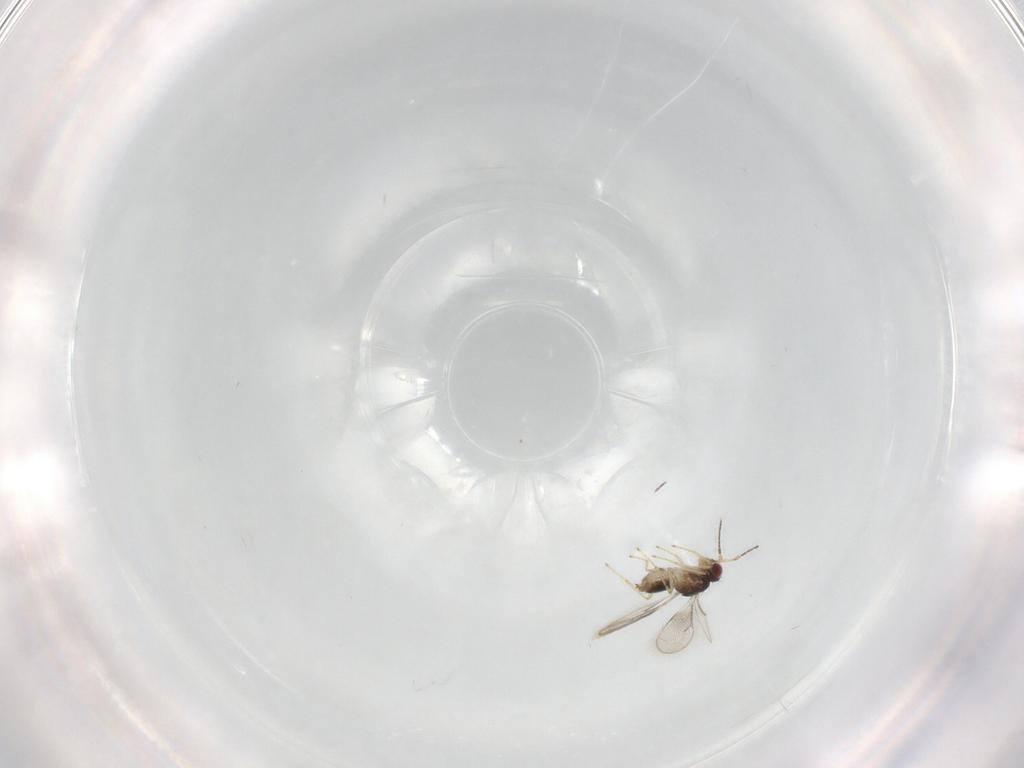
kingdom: Animalia
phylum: Arthropoda
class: Insecta
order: Hymenoptera
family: Eulophidae
